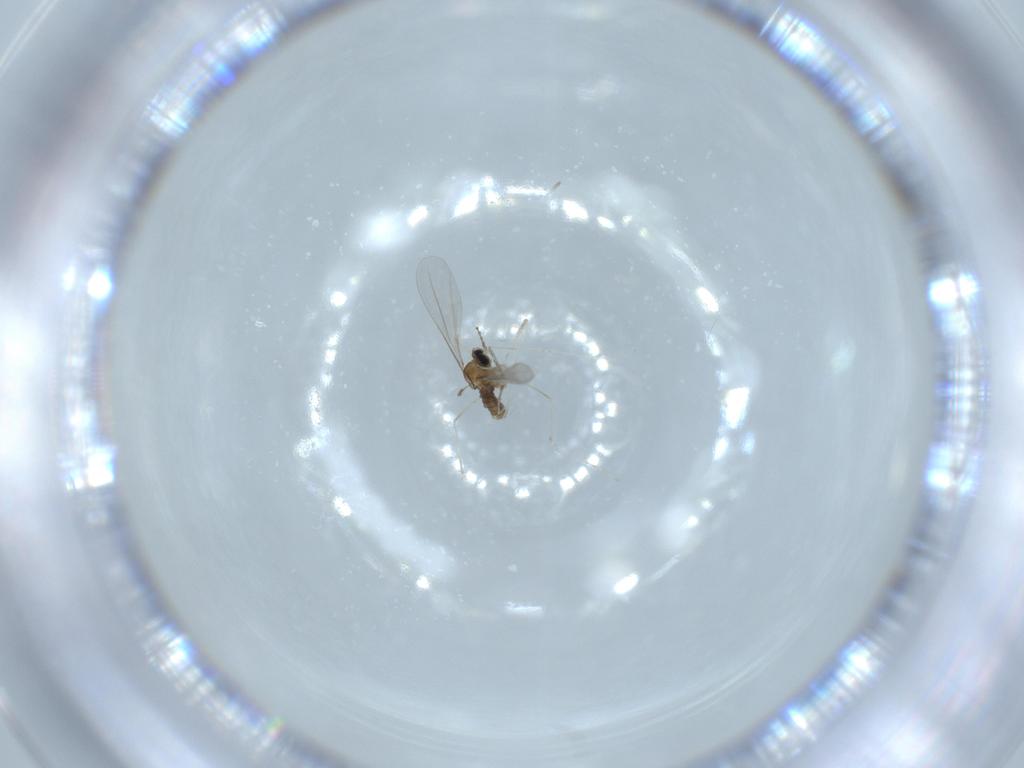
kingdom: Animalia
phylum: Arthropoda
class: Insecta
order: Diptera
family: Cecidomyiidae
